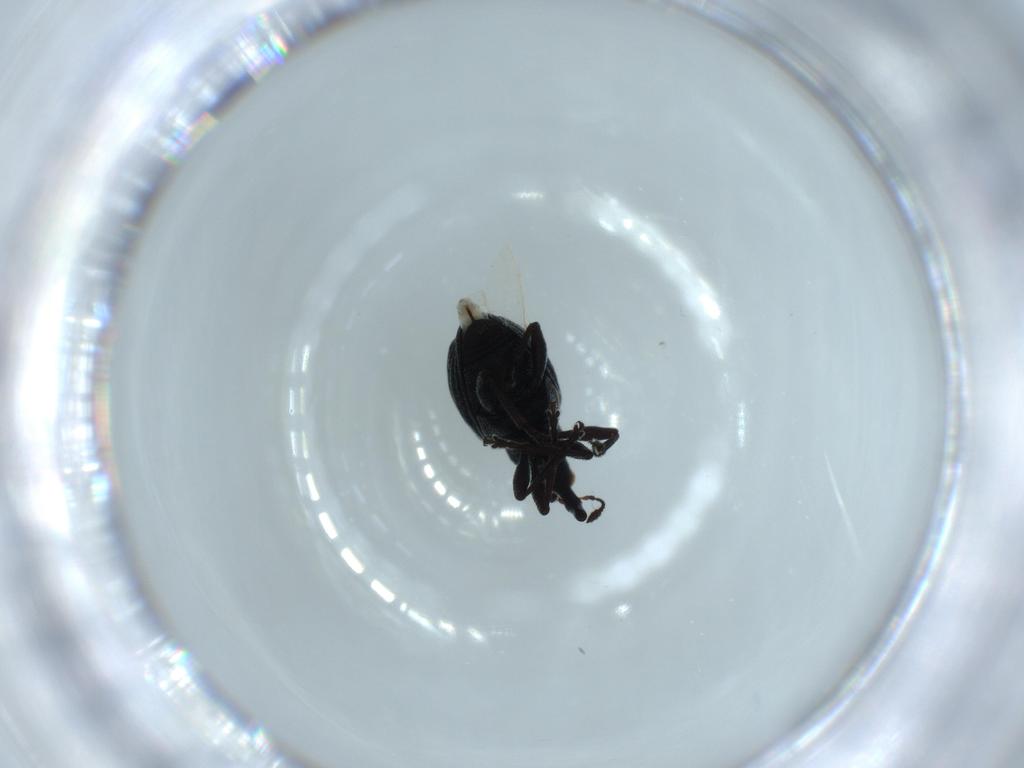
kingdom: Animalia
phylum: Arthropoda
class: Insecta
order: Coleoptera
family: Brentidae
